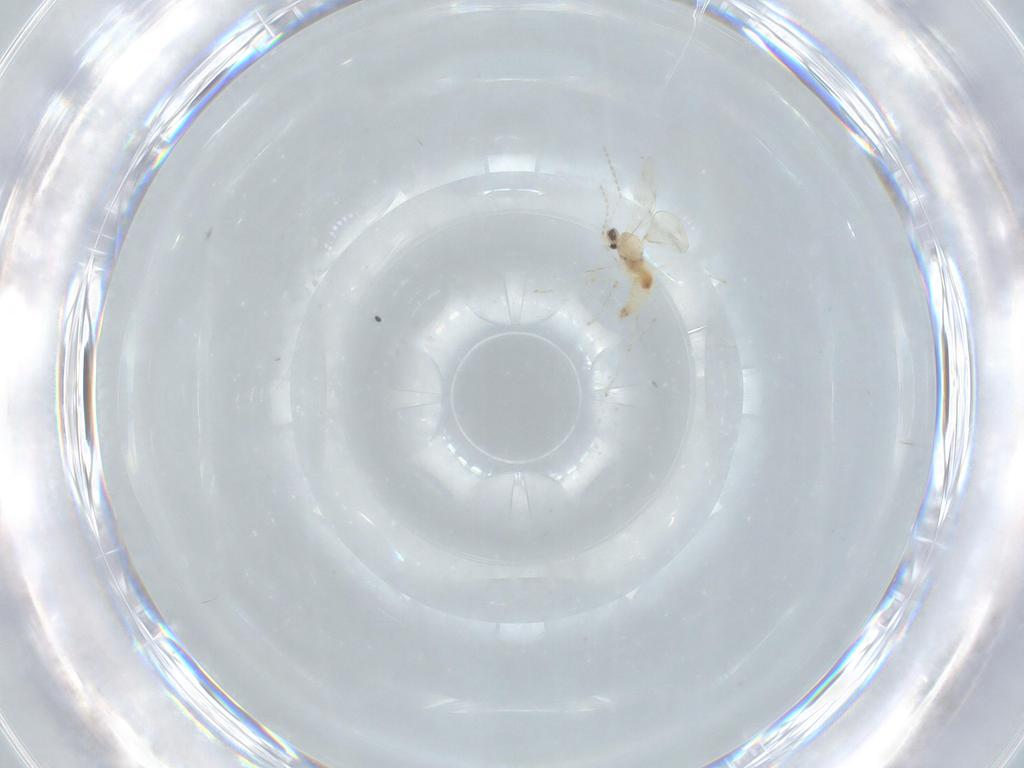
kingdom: Animalia
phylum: Arthropoda
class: Insecta
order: Diptera
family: Cecidomyiidae
